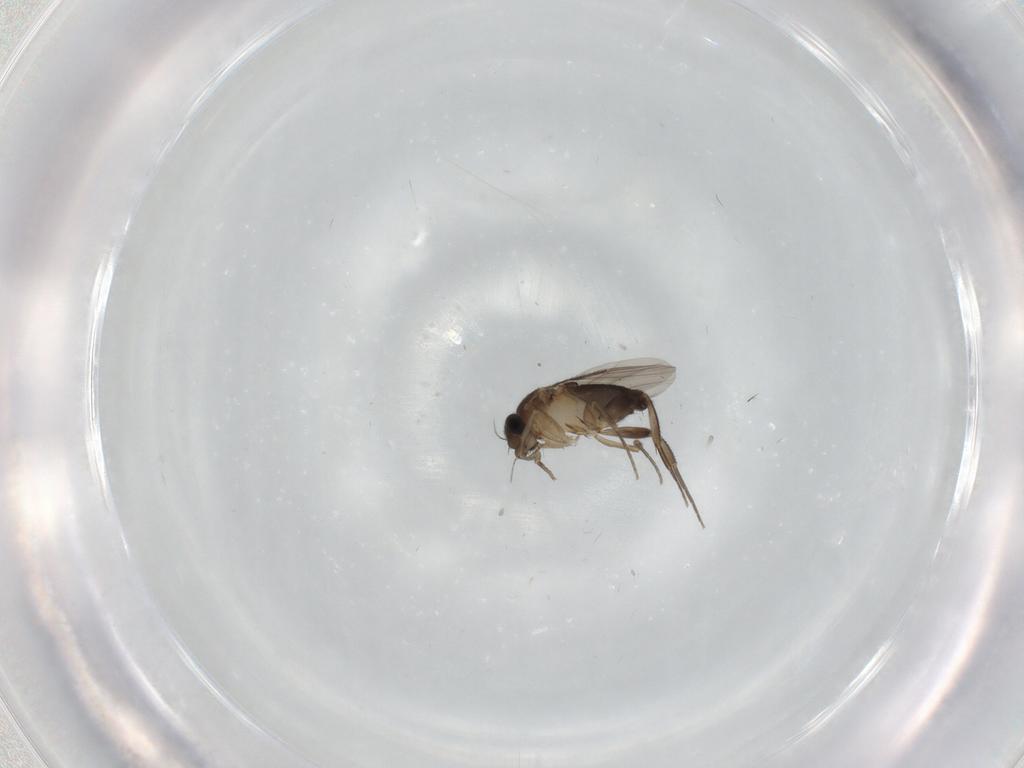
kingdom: Animalia
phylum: Arthropoda
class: Insecta
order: Diptera
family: Phoridae
